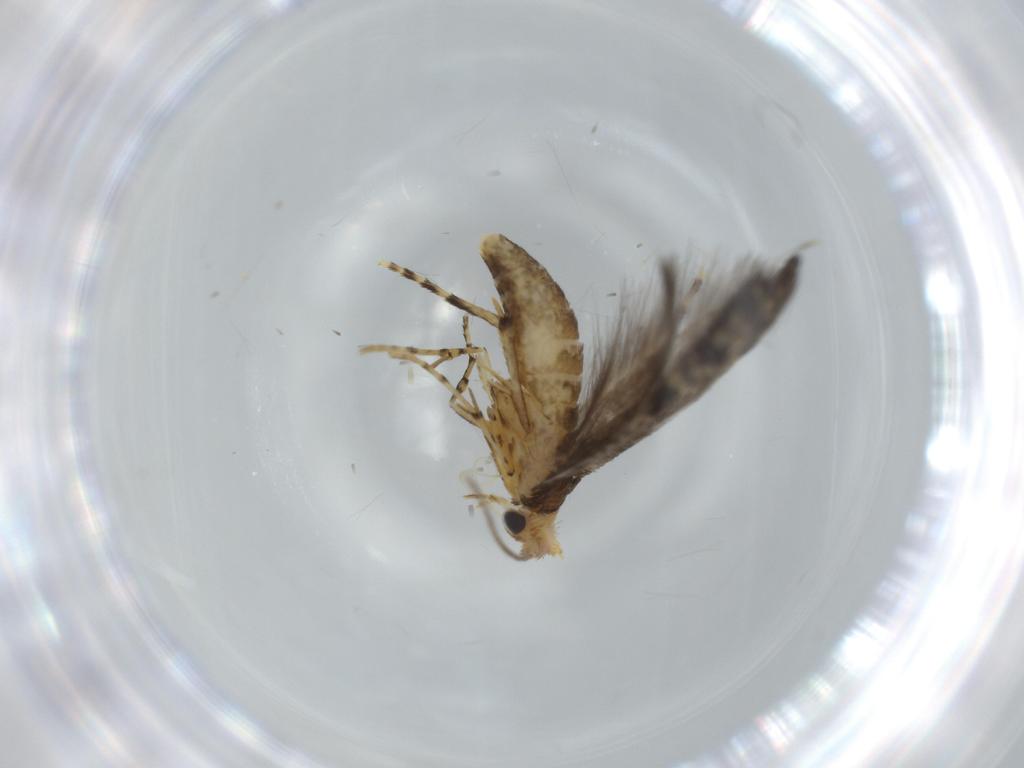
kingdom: Animalia
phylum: Arthropoda
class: Insecta
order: Lepidoptera
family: Argyresthiidae
